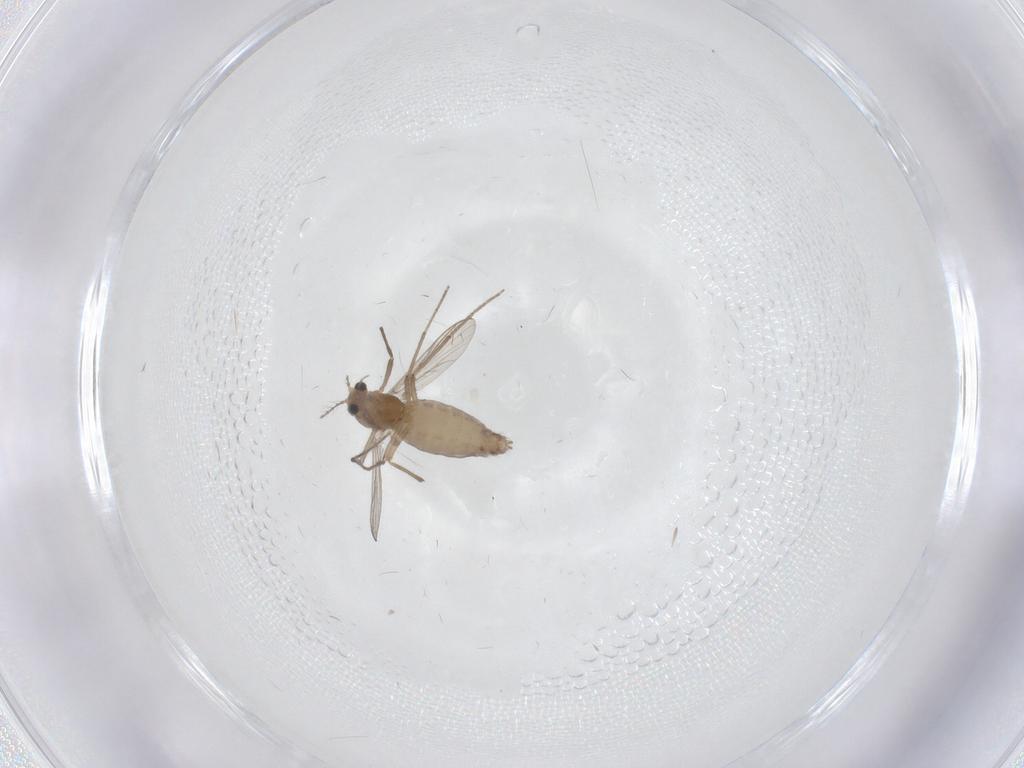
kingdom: Animalia
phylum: Arthropoda
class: Insecta
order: Diptera
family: Chironomidae
